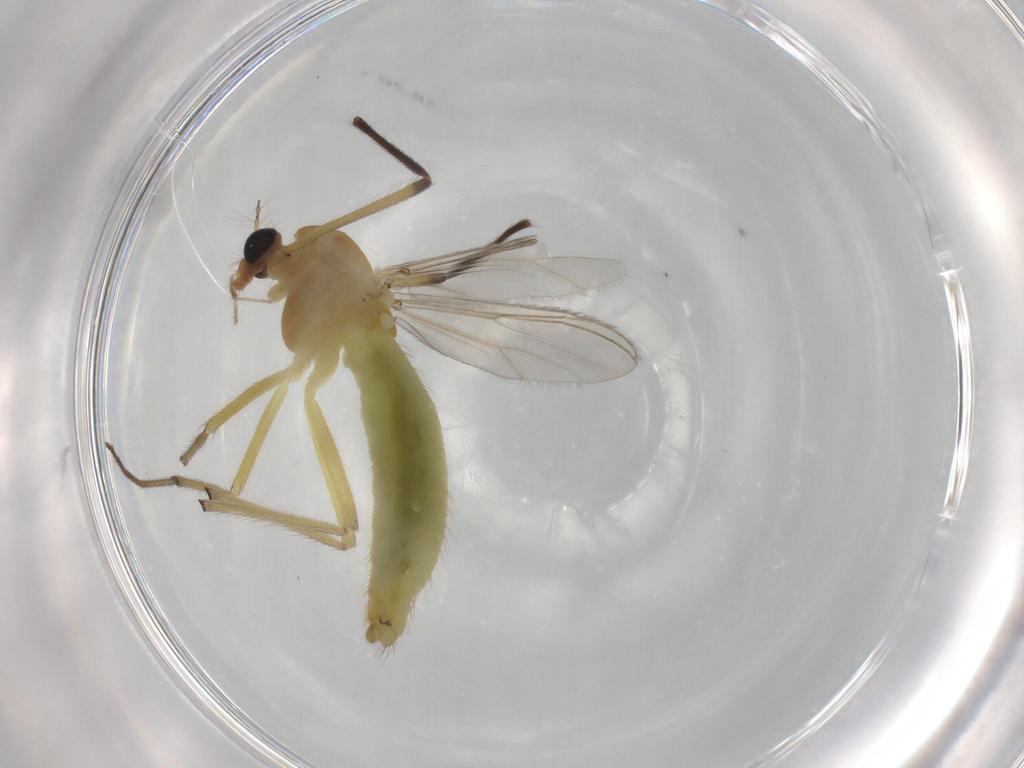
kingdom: Animalia
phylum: Arthropoda
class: Insecta
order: Diptera
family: Chironomidae
